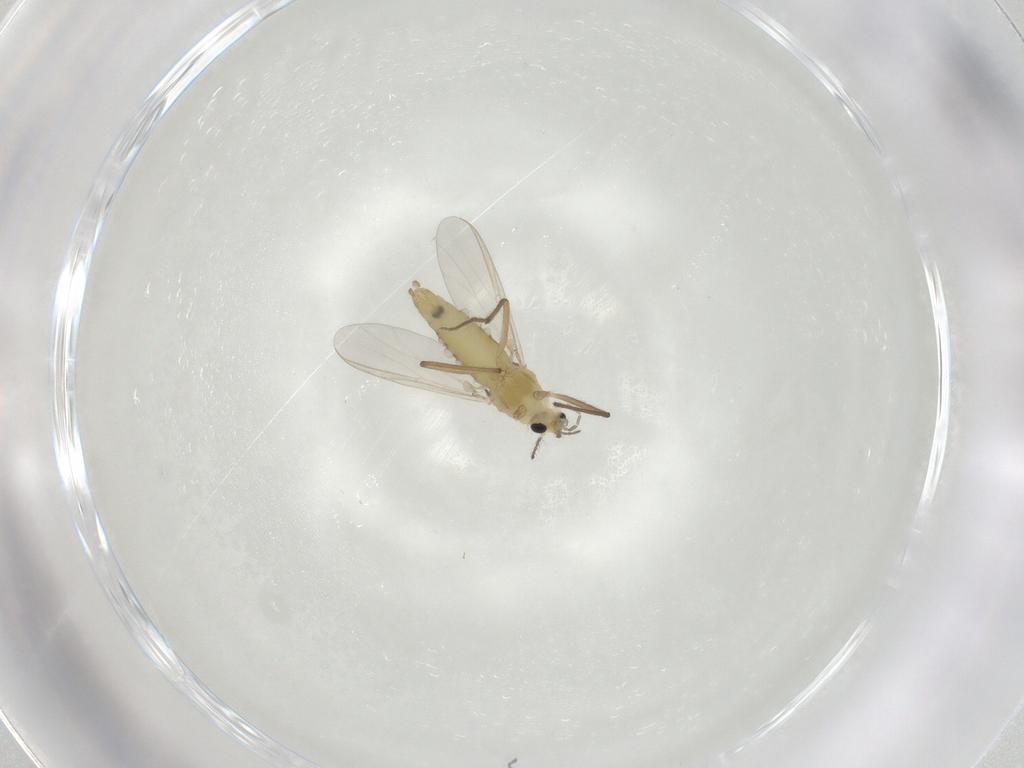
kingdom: Animalia
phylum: Arthropoda
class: Insecta
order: Diptera
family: Chironomidae
